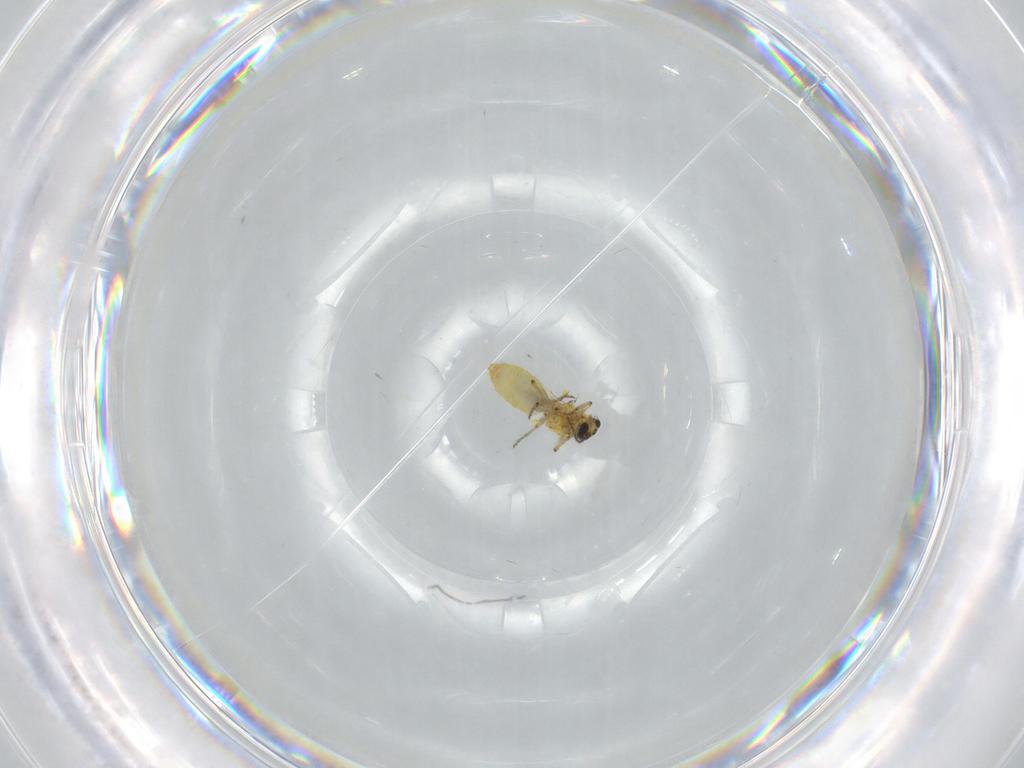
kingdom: Animalia
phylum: Arthropoda
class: Insecta
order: Diptera
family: Ceratopogonidae
